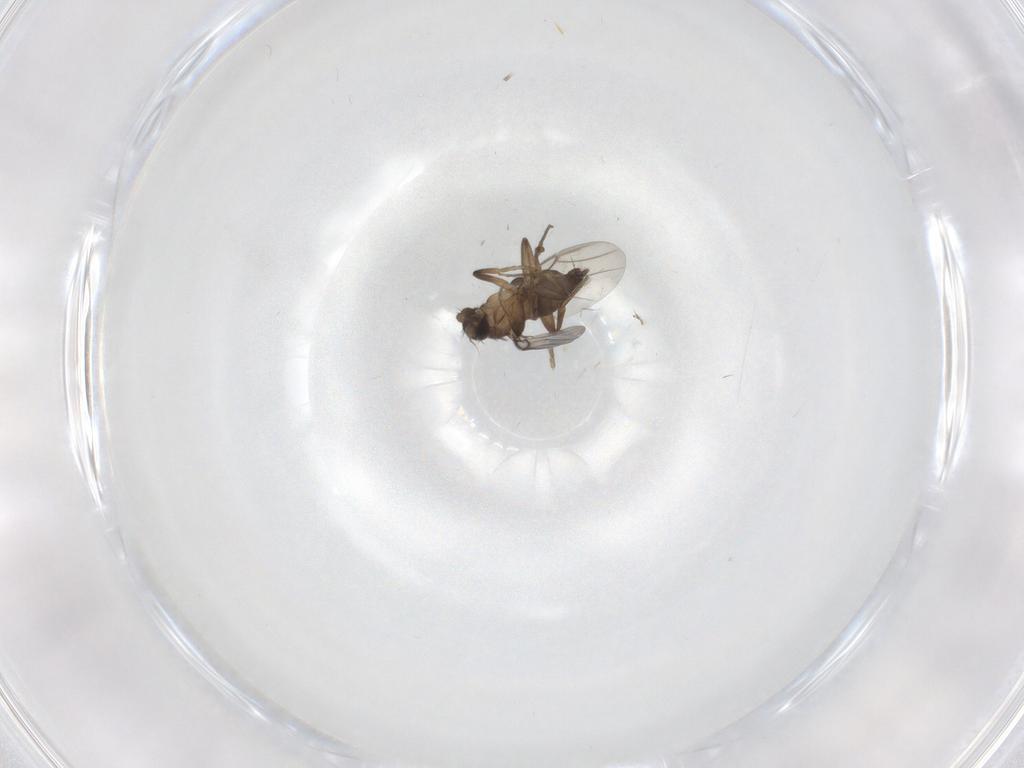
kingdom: Animalia
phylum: Arthropoda
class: Insecta
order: Diptera
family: Sciaridae
